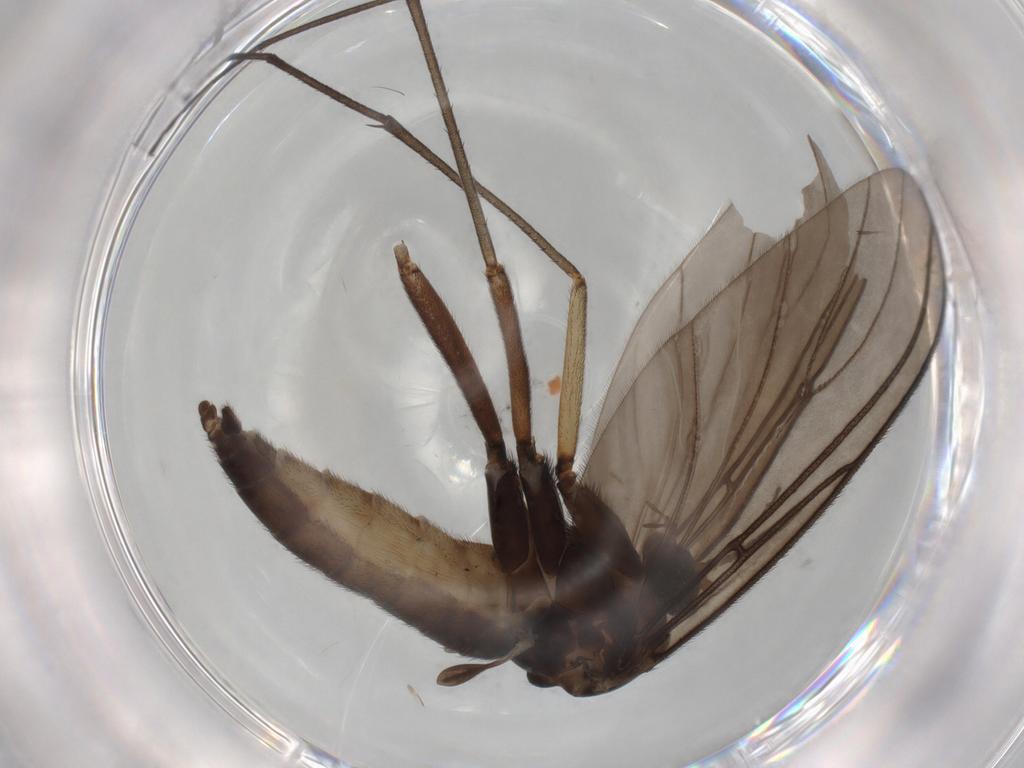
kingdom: Animalia
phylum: Arthropoda
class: Insecta
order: Diptera
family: Sciaridae
